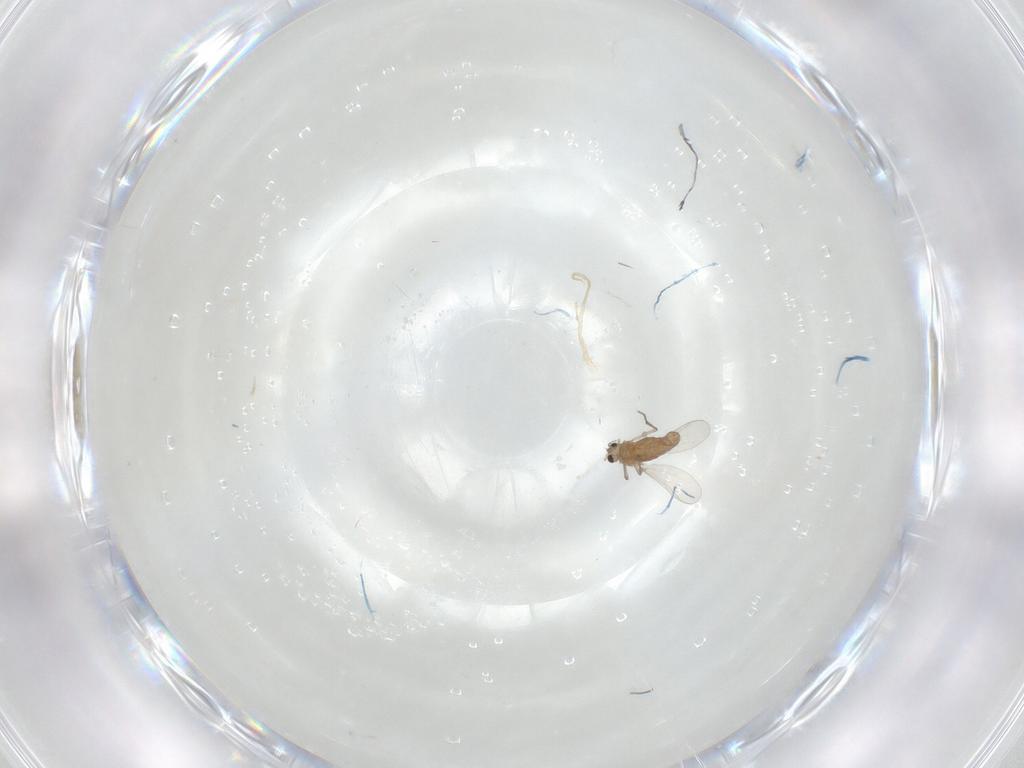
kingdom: Animalia
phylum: Arthropoda
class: Insecta
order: Diptera
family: Chironomidae
